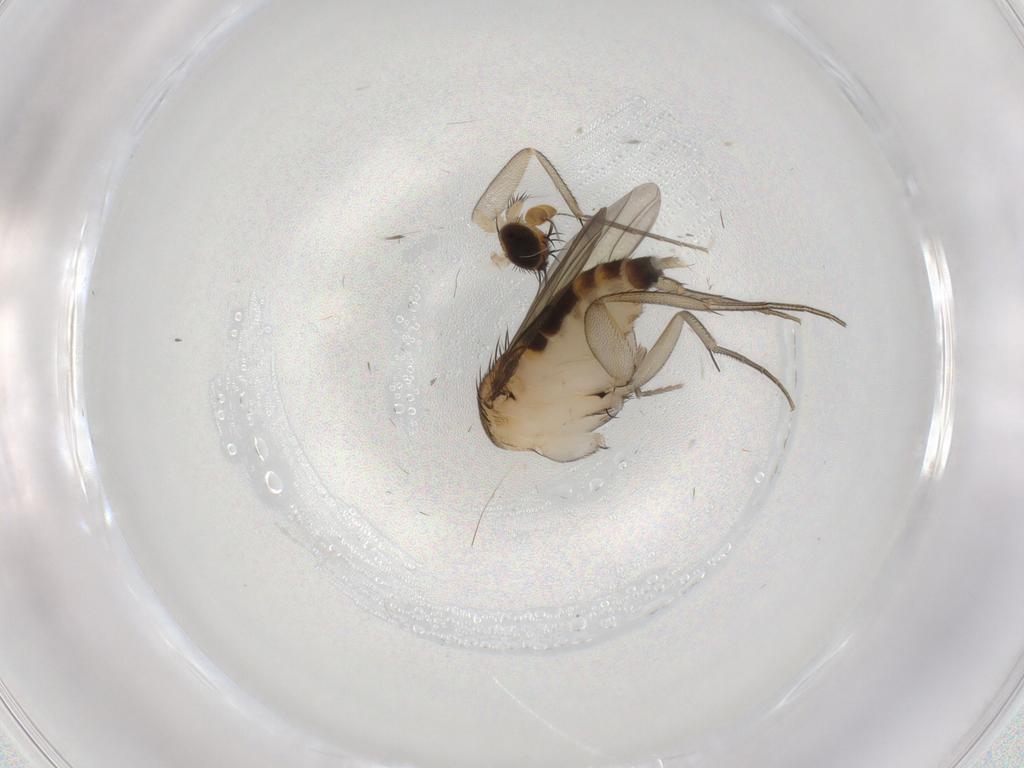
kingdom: Animalia
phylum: Arthropoda
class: Insecta
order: Diptera
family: Phoridae
